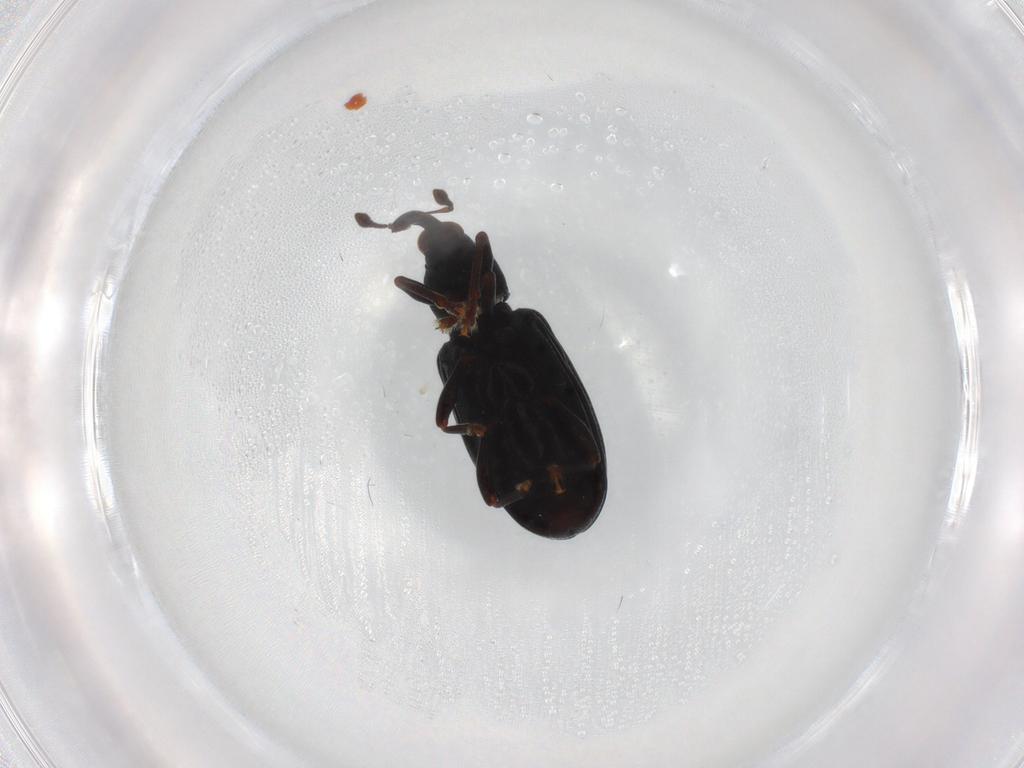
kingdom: Animalia
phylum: Arthropoda
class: Insecta
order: Coleoptera
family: Curculionidae
